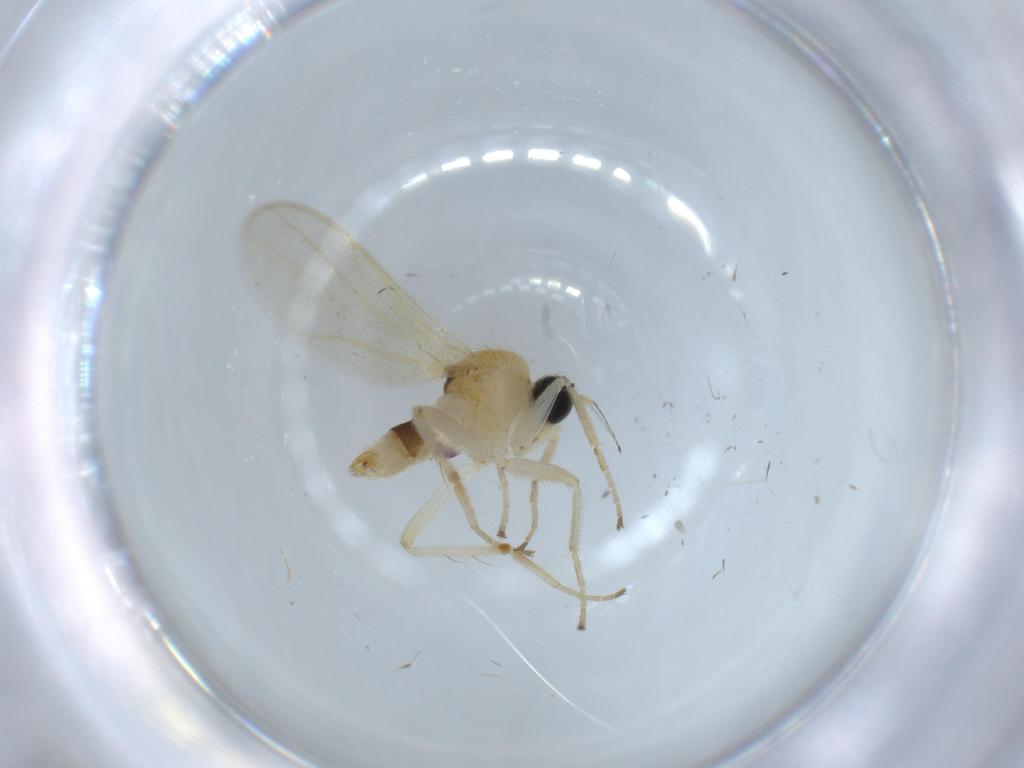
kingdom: Animalia
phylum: Arthropoda
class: Insecta
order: Diptera
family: Hybotidae
